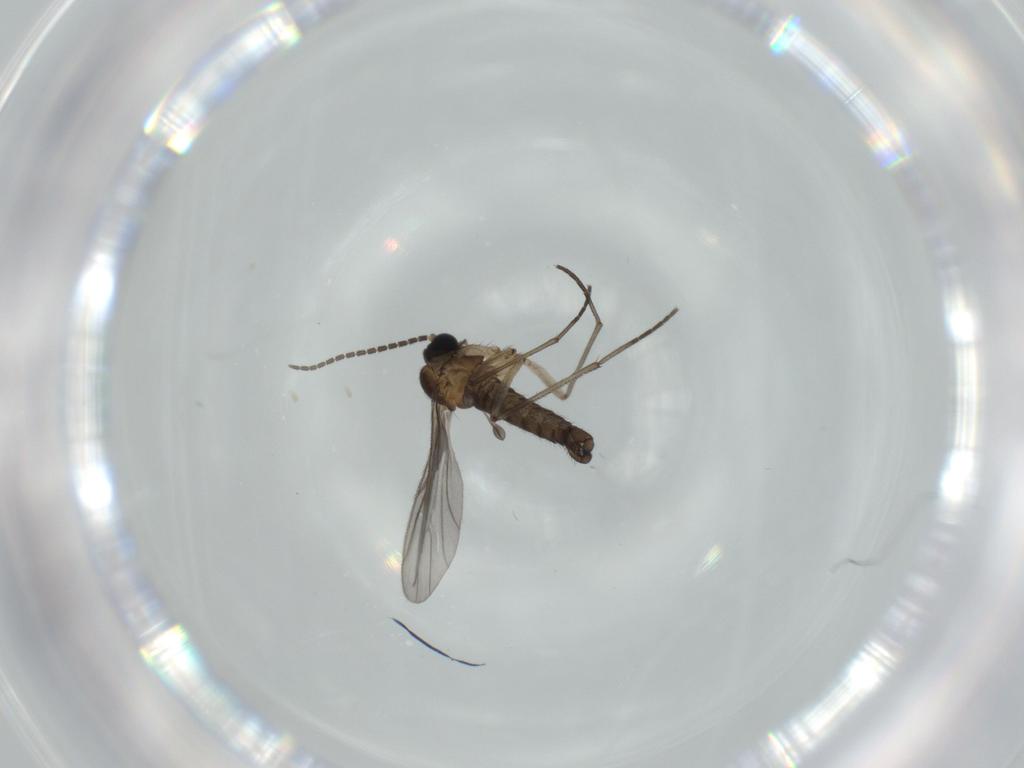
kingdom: Animalia
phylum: Arthropoda
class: Insecta
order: Diptera
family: Sciaridae
